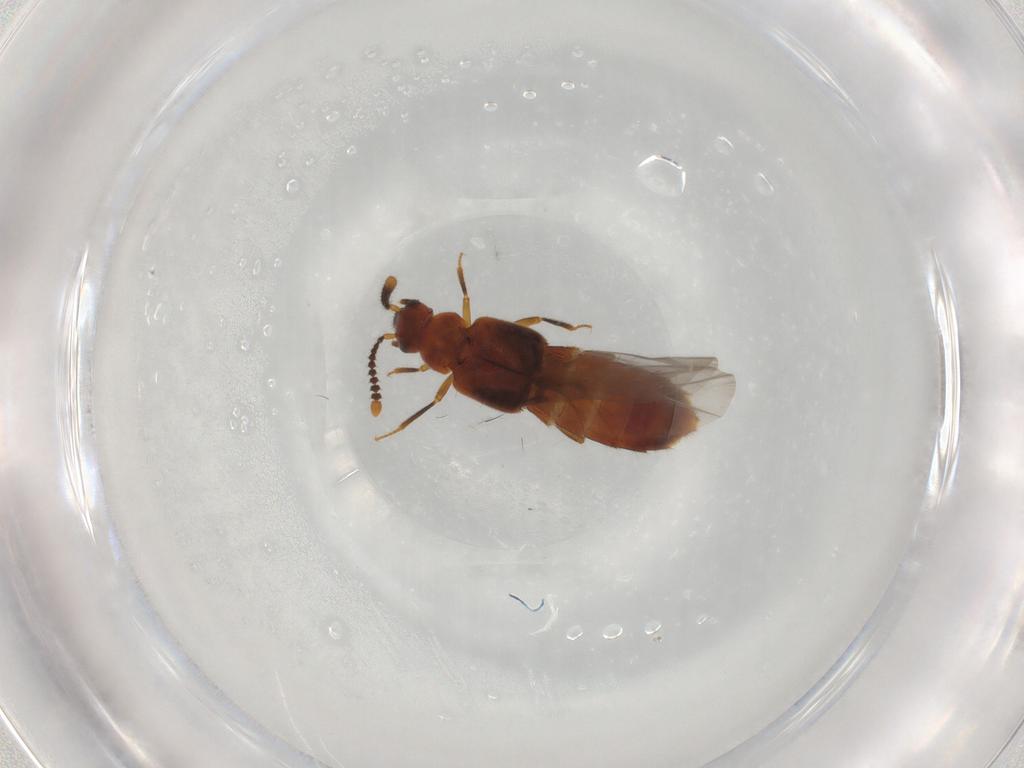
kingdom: Animalia
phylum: Arthropoda
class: Insecta
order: Coleoptera
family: Staphylinidae
